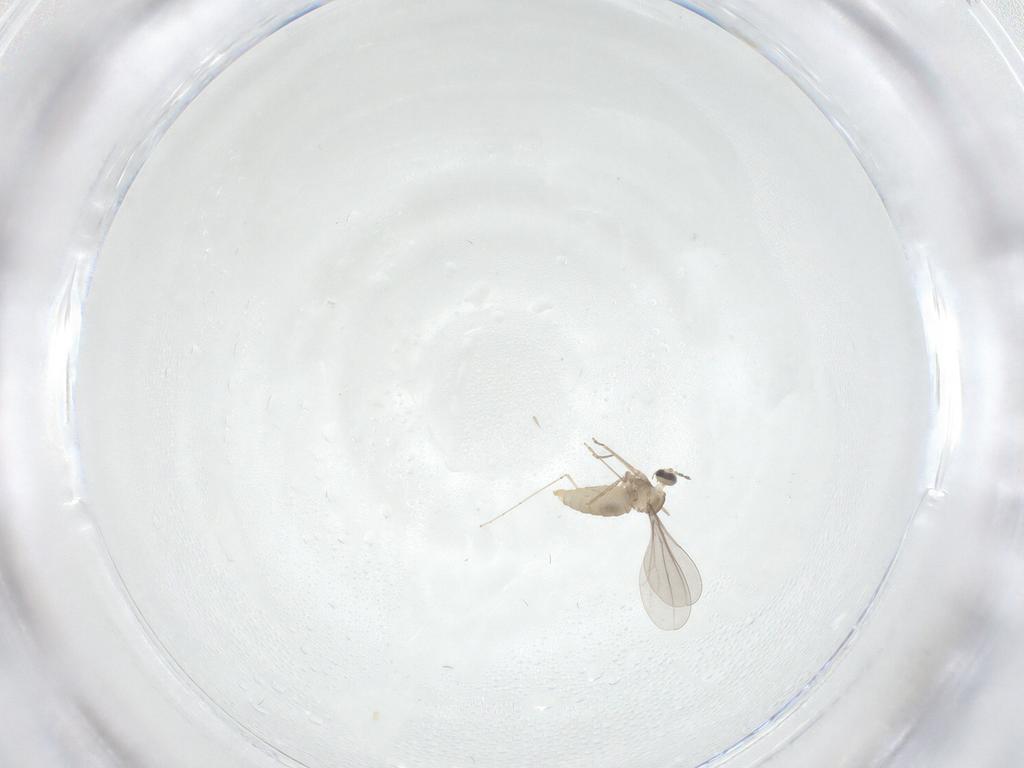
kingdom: Animalia
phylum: Arthropoda
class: Insecta
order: Diptera
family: Cecidomyiidae
